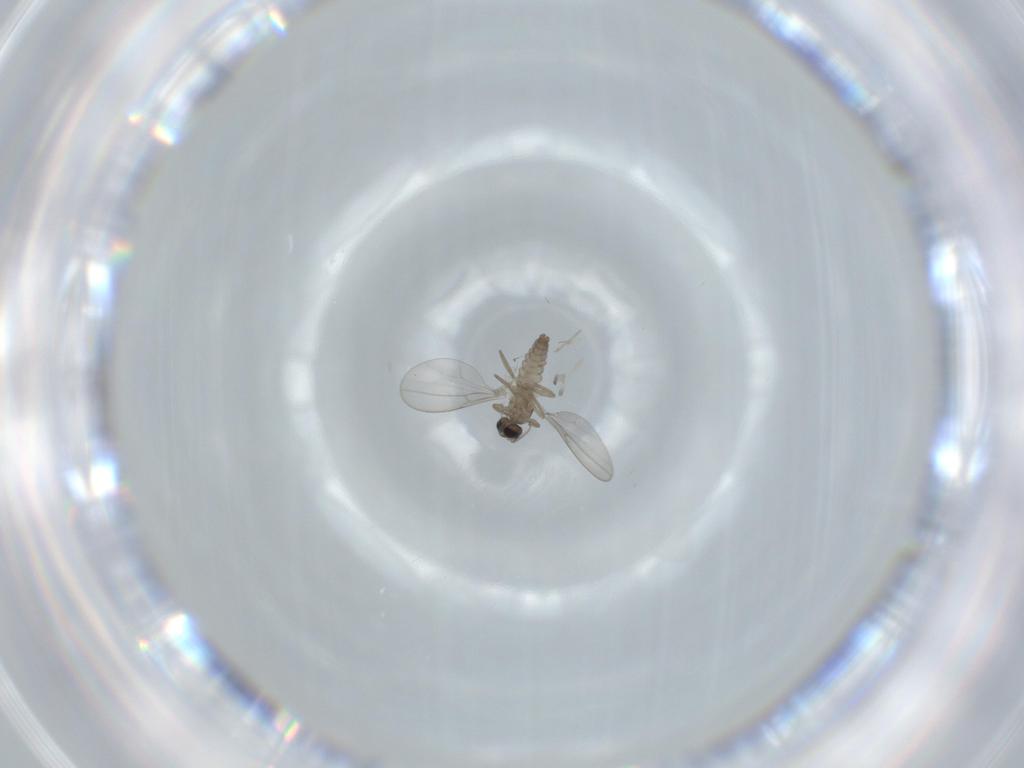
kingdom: Animalia
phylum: Arthropoda
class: Insecta
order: Diptera
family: Cecidomyiidae
